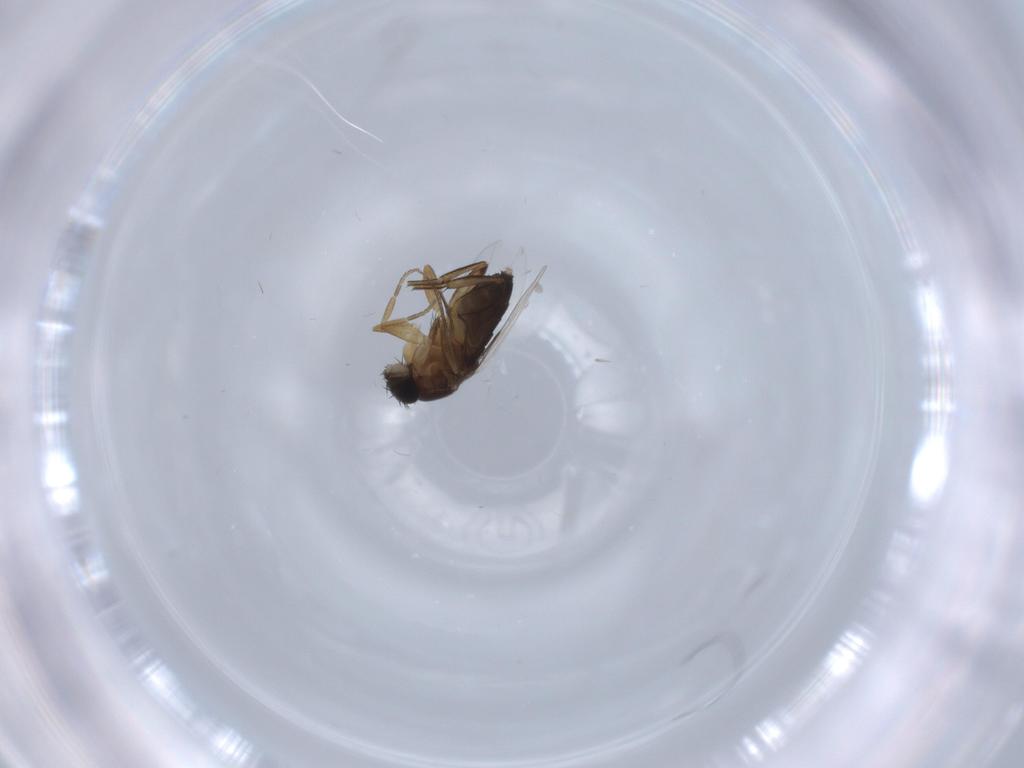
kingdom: Animalia
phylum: Arthropoda
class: Insecta
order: Diptera
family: Phoridae
